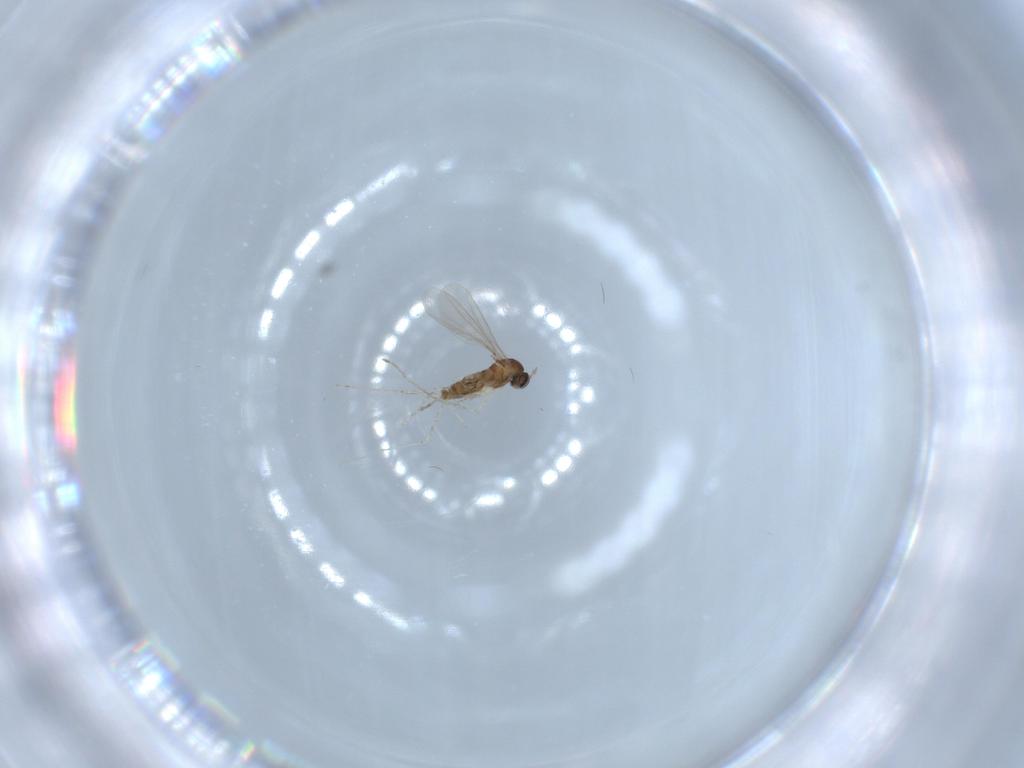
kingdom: Animalia
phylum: Arthropoda
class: Insecta
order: Diptera
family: Cecidomyiidae
